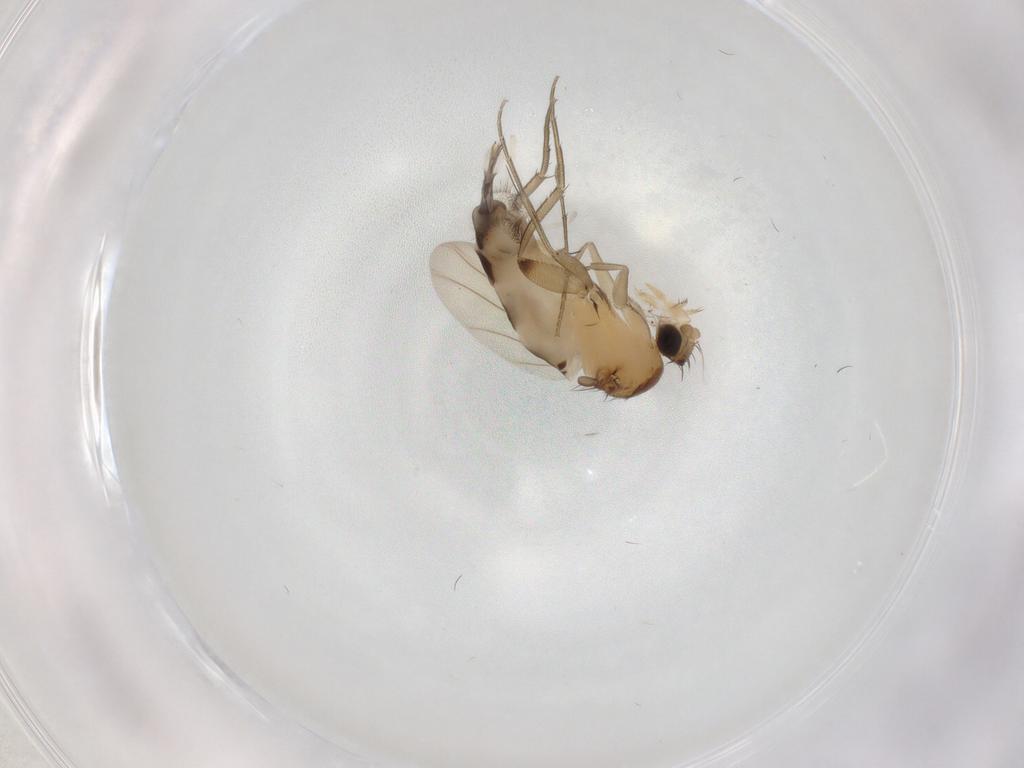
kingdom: Animalia
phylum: Arthropoda
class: Insecta
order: Diptera
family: Phoridae
